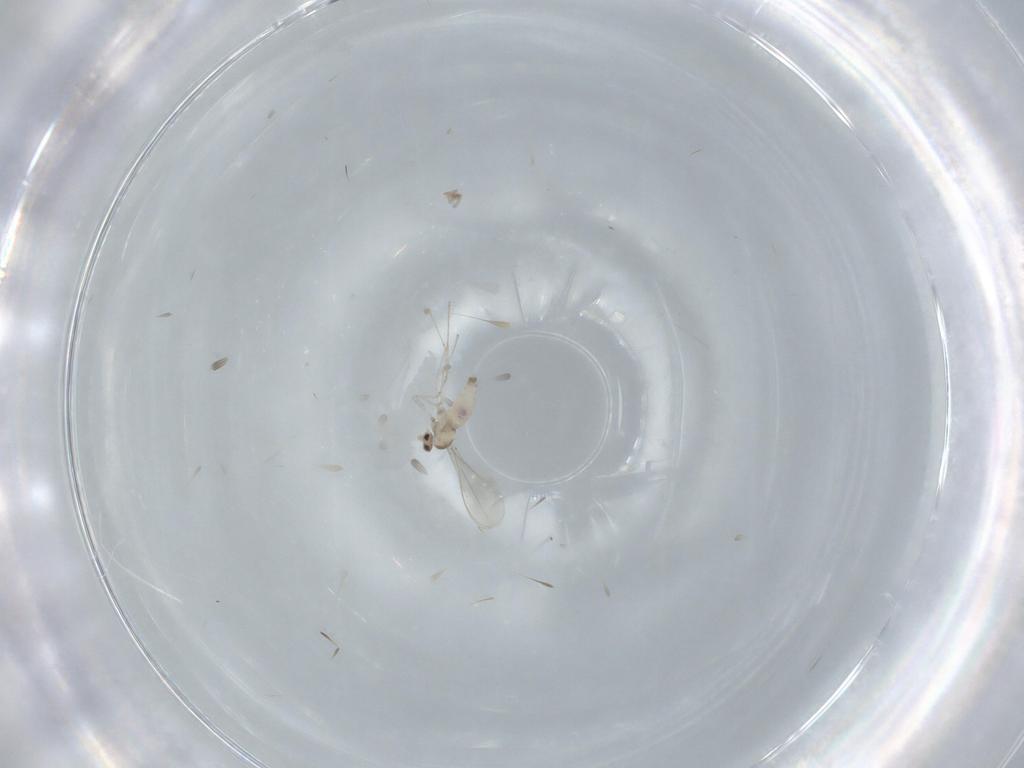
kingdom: Animalia
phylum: Arthropoda
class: Insecta
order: Diptera
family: Cecidomyiidae
